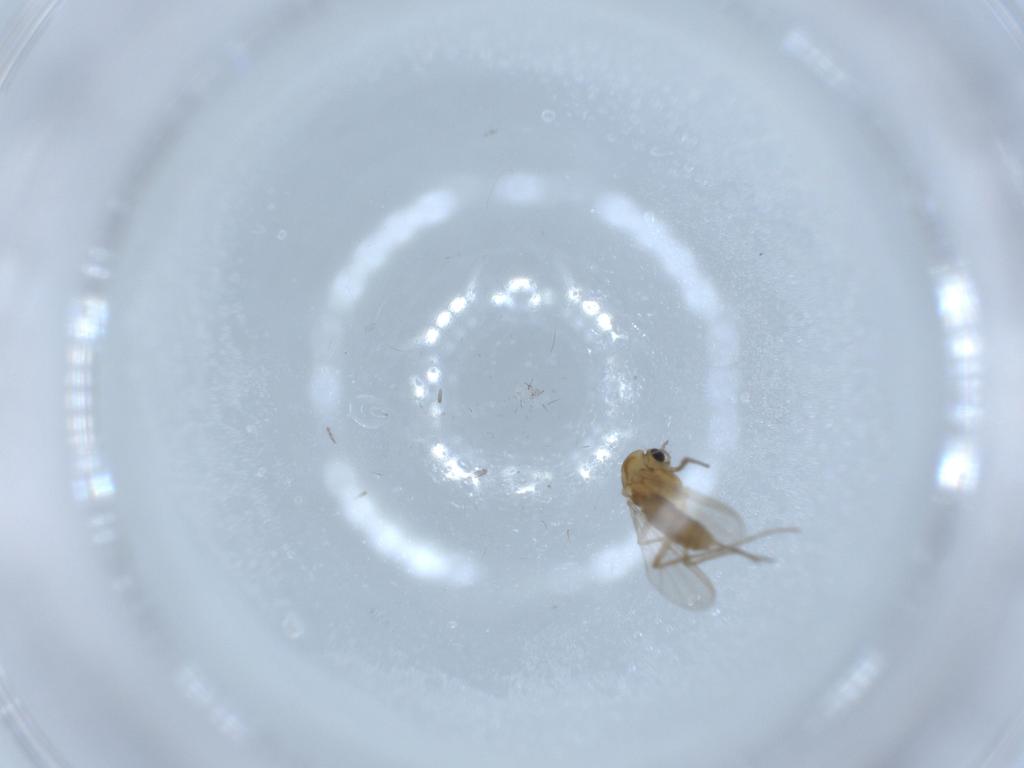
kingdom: Animalia
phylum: Arthropoda
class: Insecta
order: Diptera
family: Chironomidae
